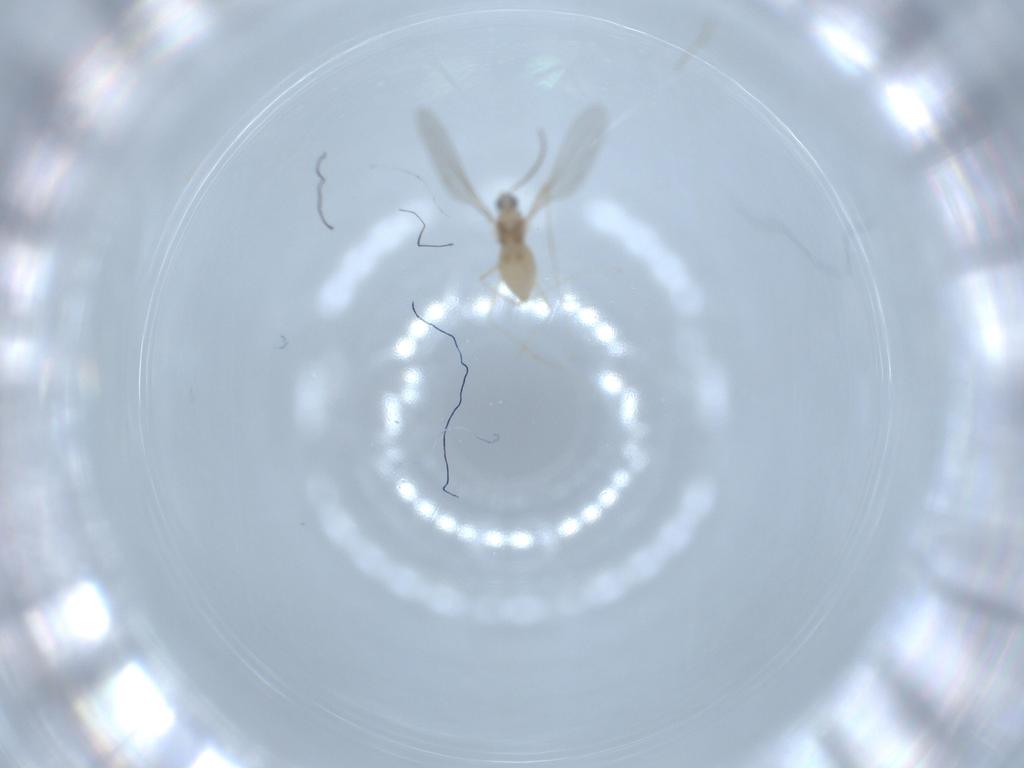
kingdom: Animalia
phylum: Arthropoda
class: Insecta
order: Diptera
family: Cecidomyiidae
